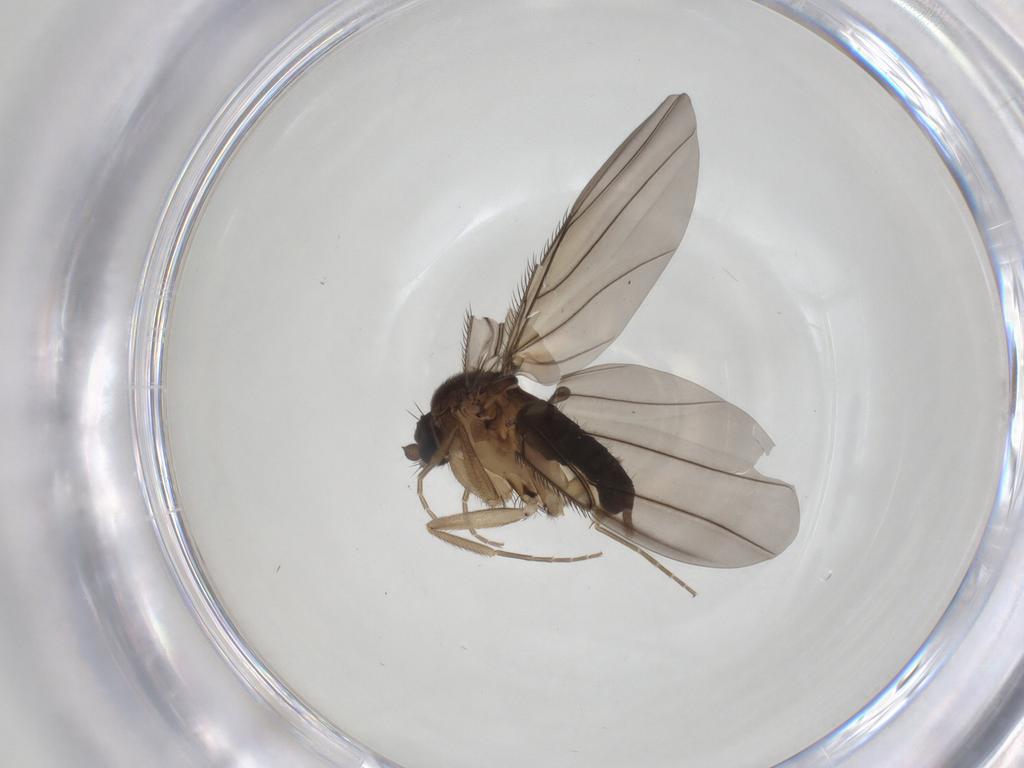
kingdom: Animalia
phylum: Arthropoda
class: Insecta
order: Diptera
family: Phoridae
